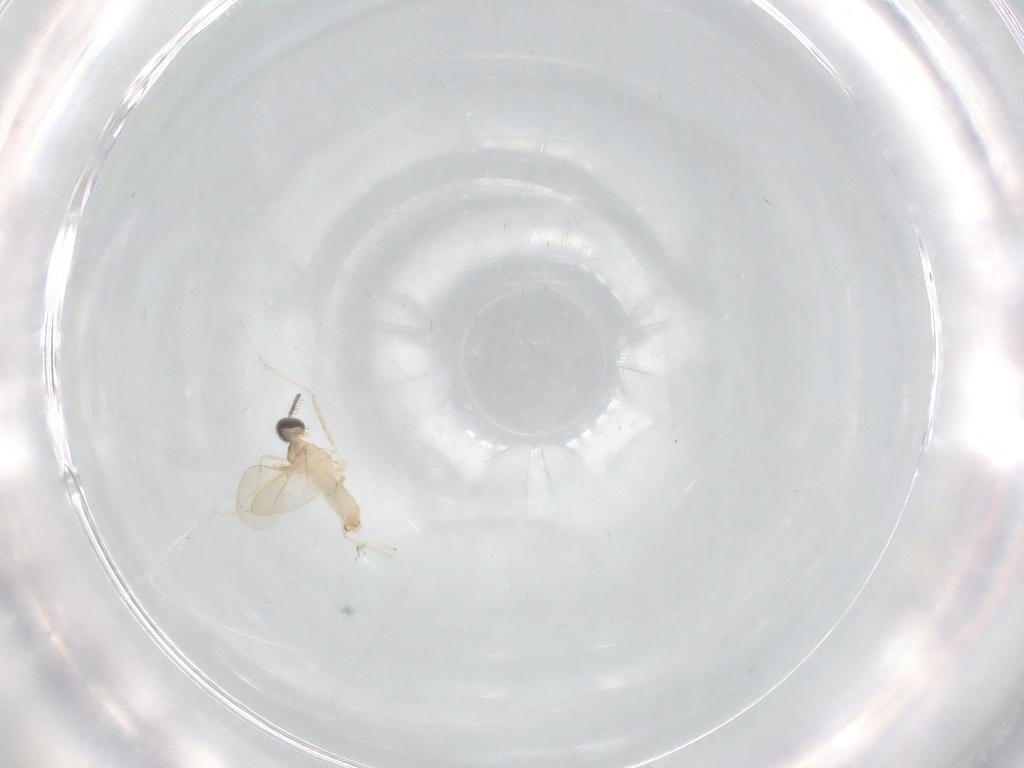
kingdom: Animalia
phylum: Arthropoda
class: Insecta
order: Diptera
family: Cecidomyiidae
